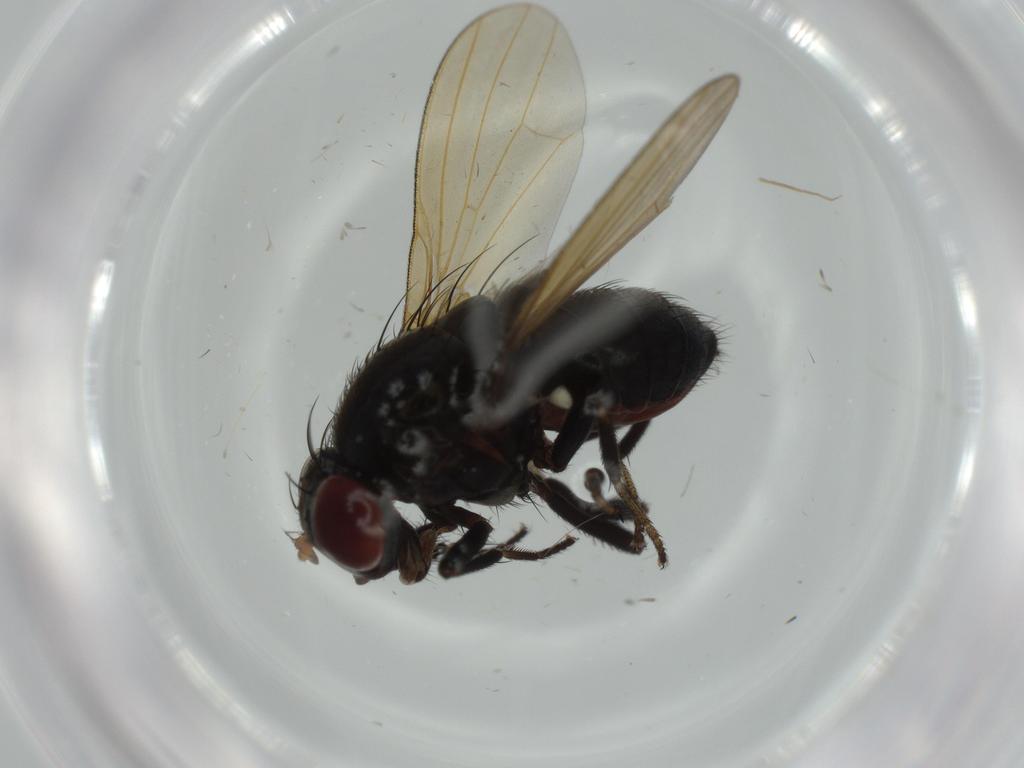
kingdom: Animalia
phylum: Arthropoda
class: Insecta
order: Diptera
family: Lauxaniidae
